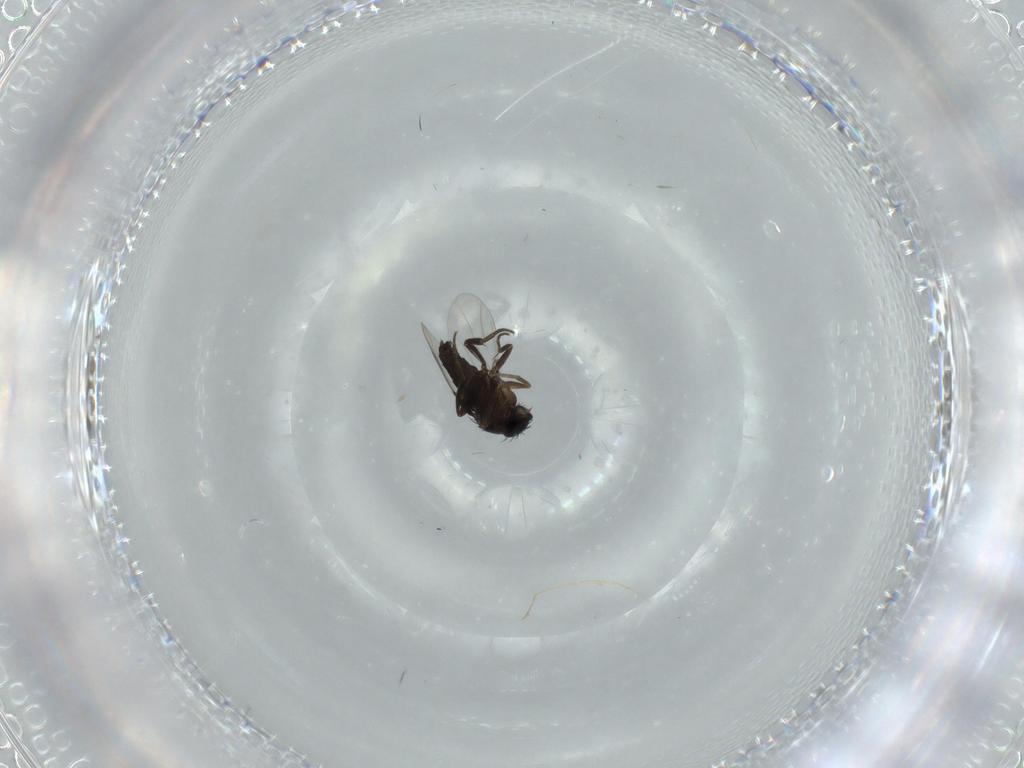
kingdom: Animalia
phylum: Arthropoda
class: Insecta
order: Diptera
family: Phoridae
